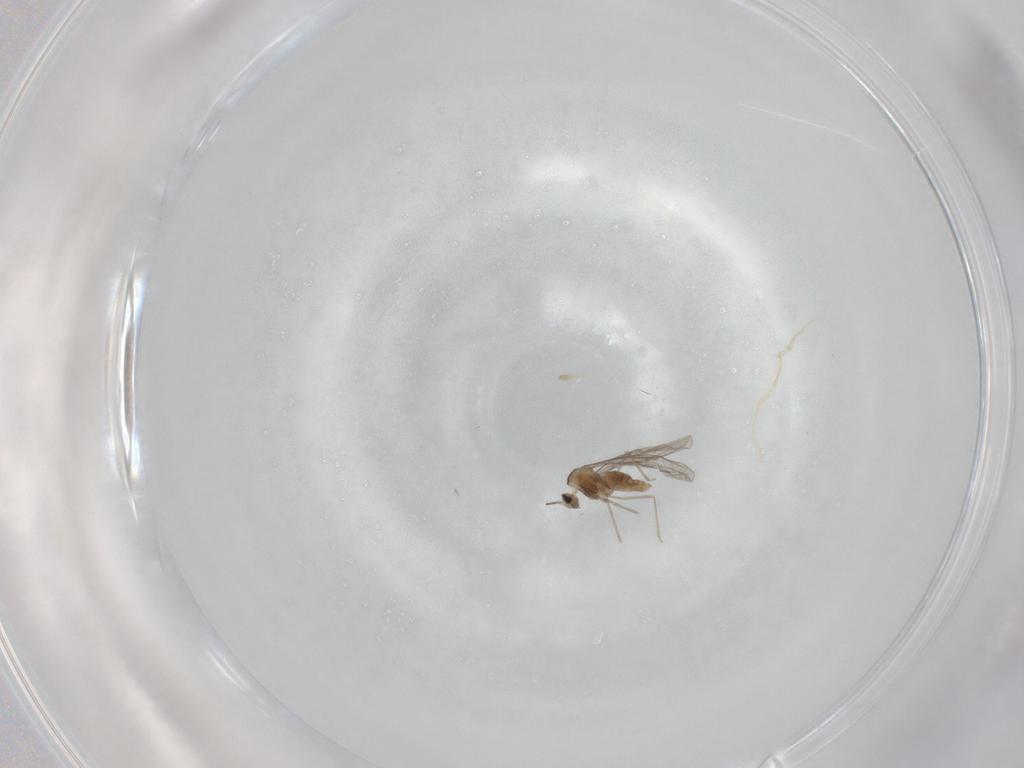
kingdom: Animalia
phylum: Arthropoda
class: Insecta
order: Diptera
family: Cecidomyiidae
